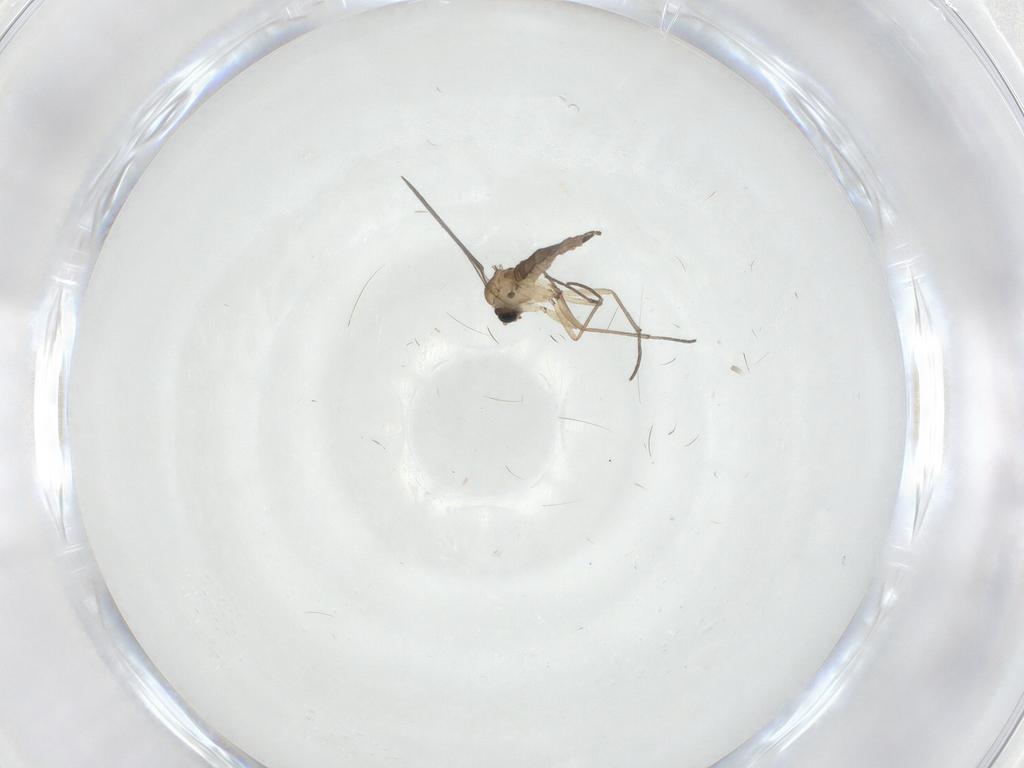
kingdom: Animalia
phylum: Arthropoda
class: Insecta
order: Diptera
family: Sciaridae
